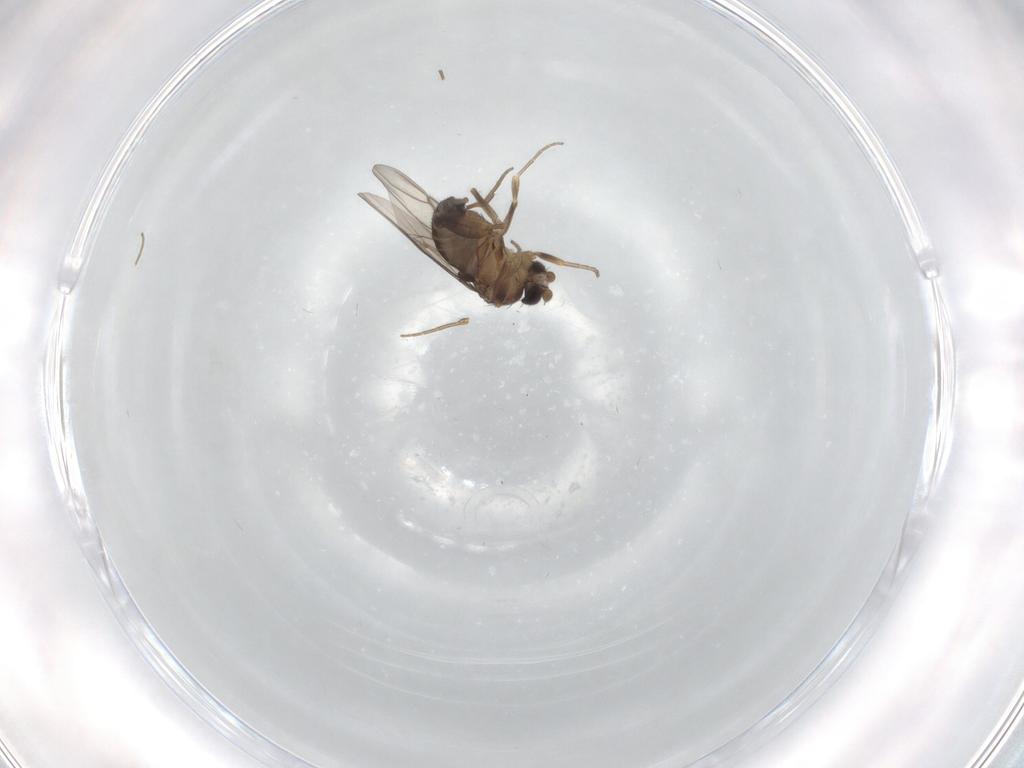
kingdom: Animalia
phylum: Arthropoda
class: Insecta
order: Diptera
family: Phoridae
